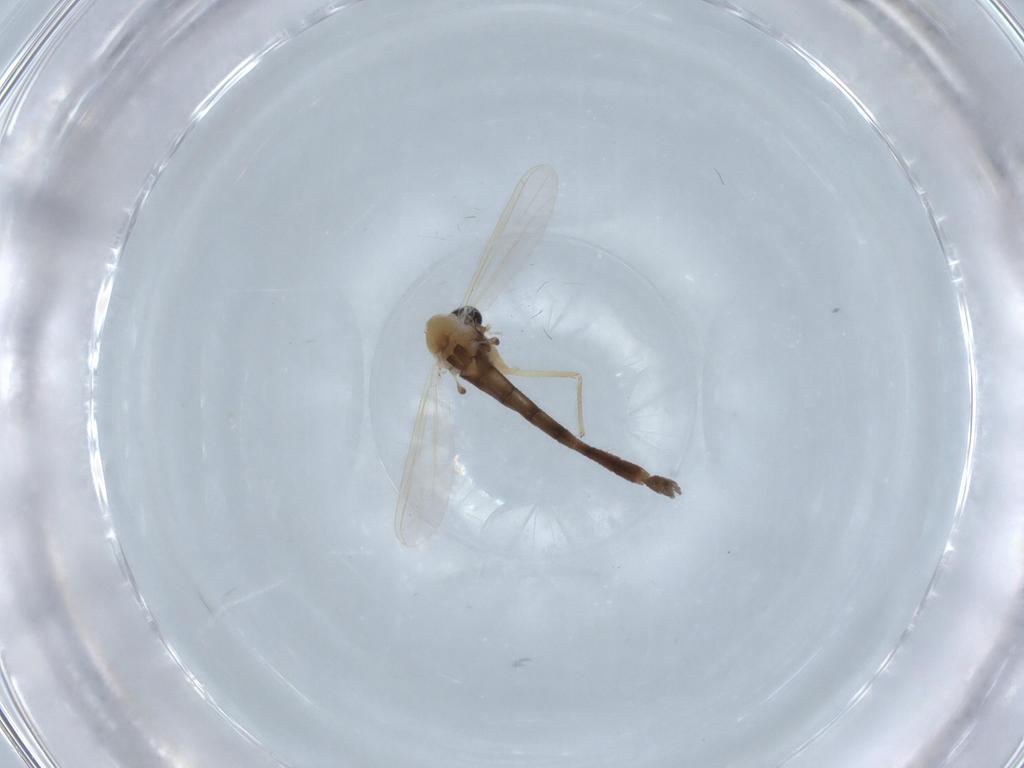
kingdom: Animalia
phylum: Arthropoda
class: Insecta
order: Diptera
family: Chironomidae
